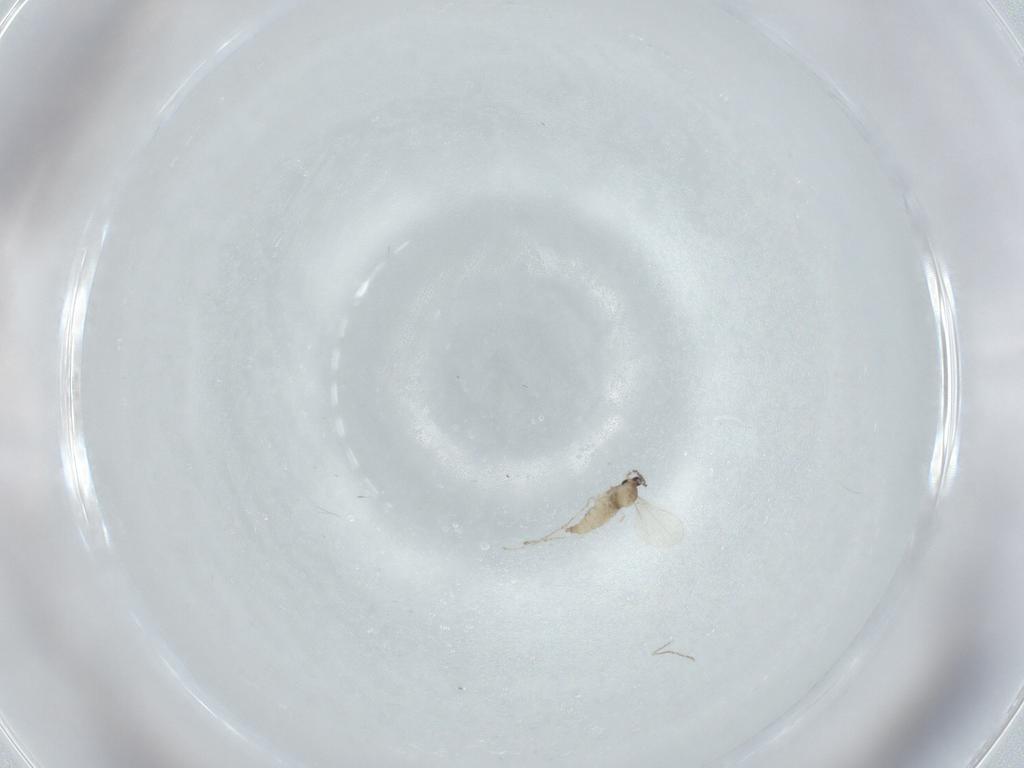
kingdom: Animalia
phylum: Arthropoda
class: Insecta
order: Diptera
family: Cecidomyiidae
